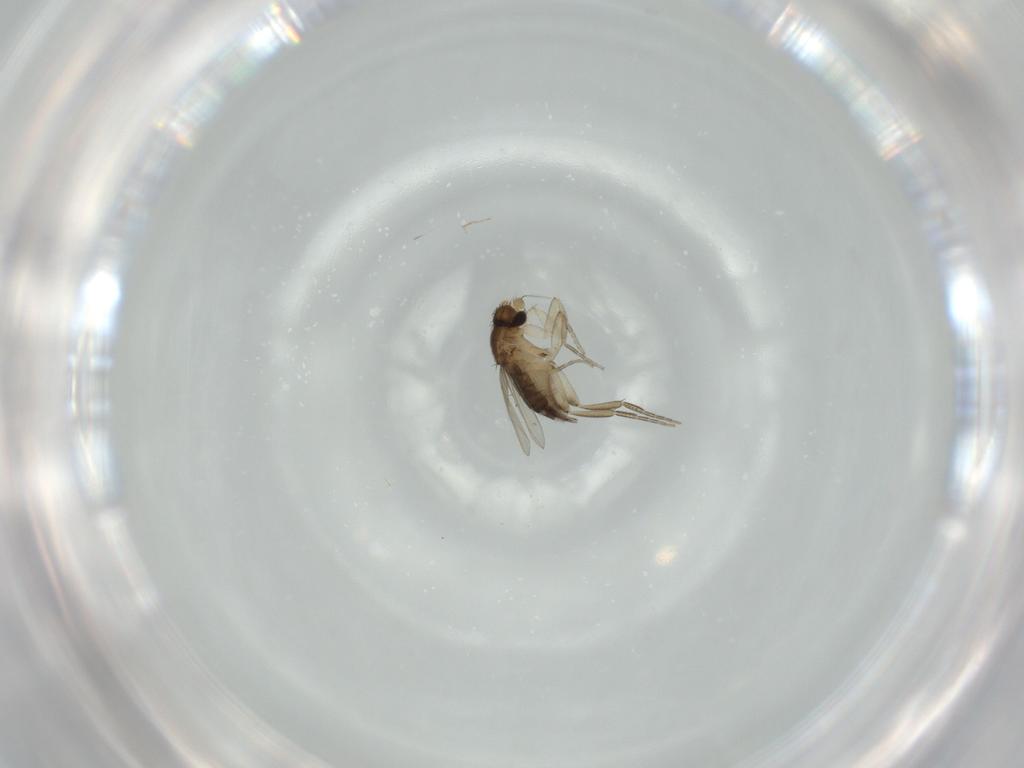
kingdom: Animalia
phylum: Arthropoda
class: Insecta
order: Diptera
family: Phoridae
